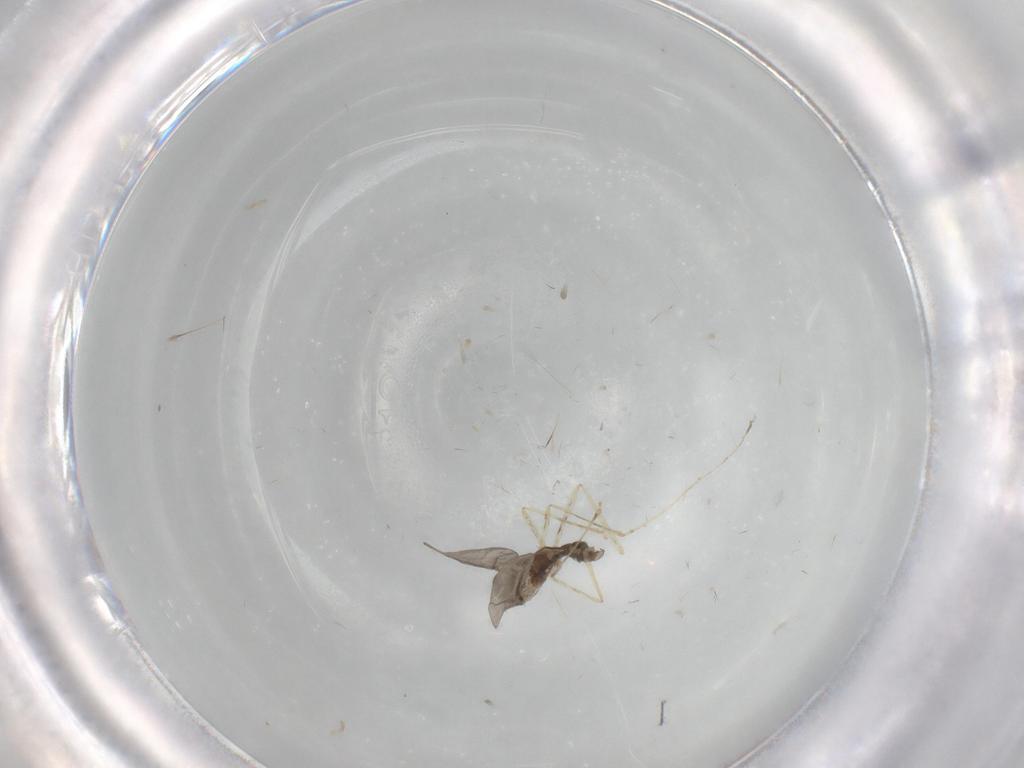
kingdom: Animalia
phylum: Arthropoda
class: Insecta
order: Diptera
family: Sciaridae
